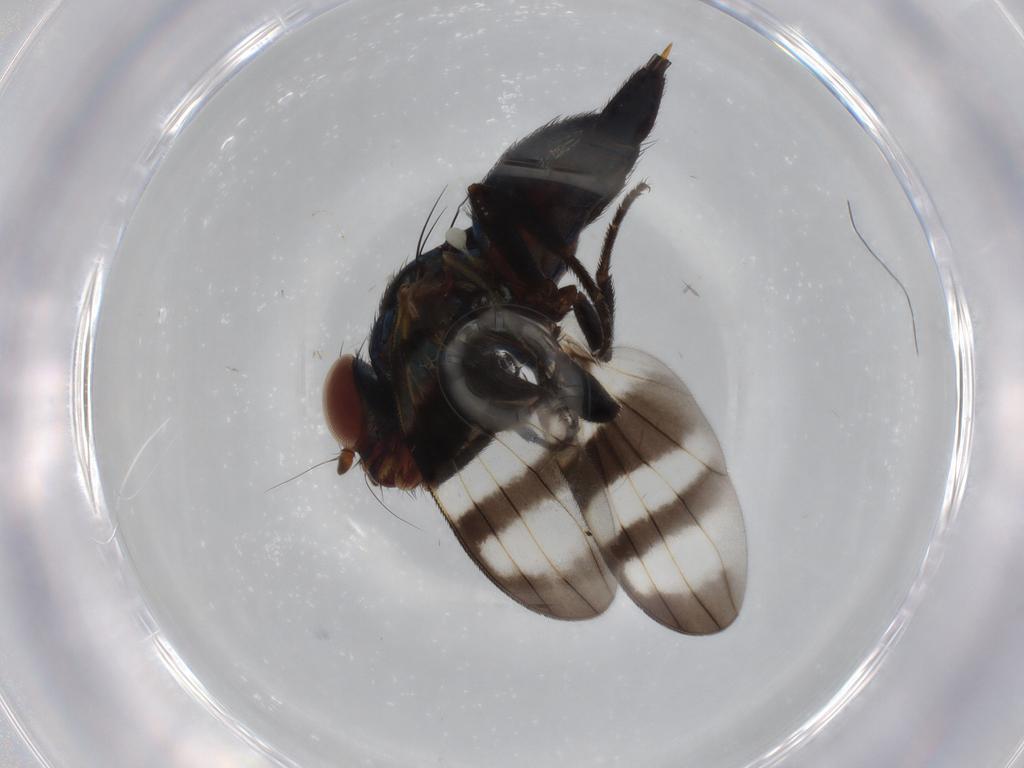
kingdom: Animalia
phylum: Arthropoda
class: Insecta
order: Diptera
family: Ulidiidae
